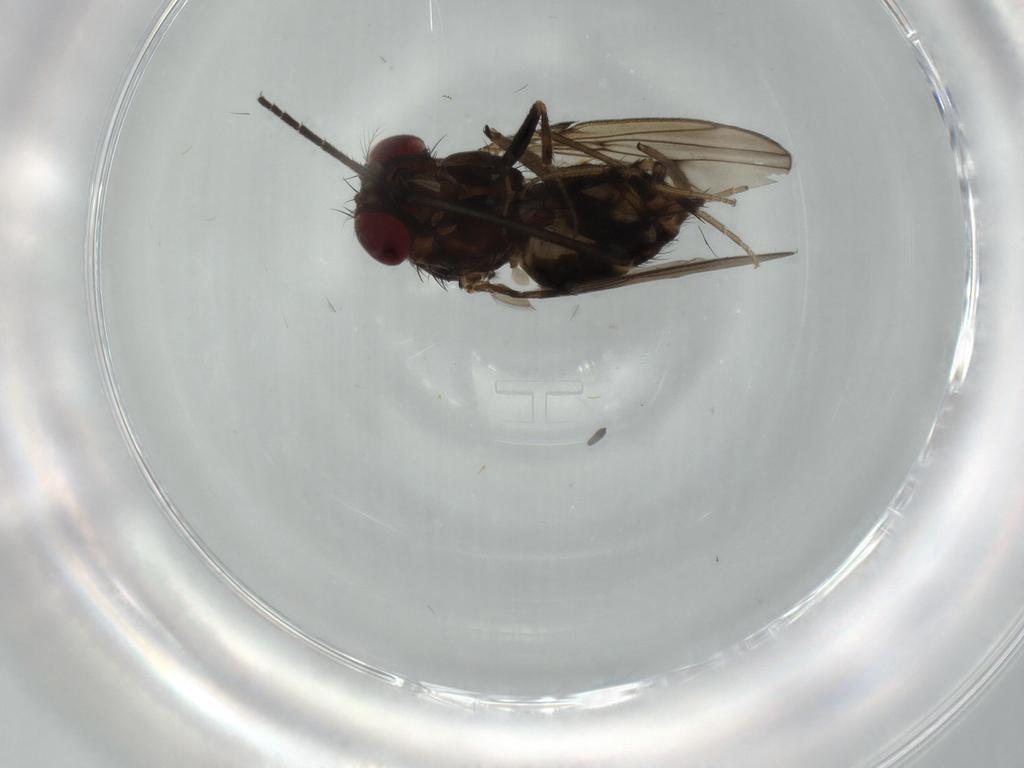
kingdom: Animalia
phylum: Arthropoda
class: Insecta
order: Diptera
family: Drosophilidae
